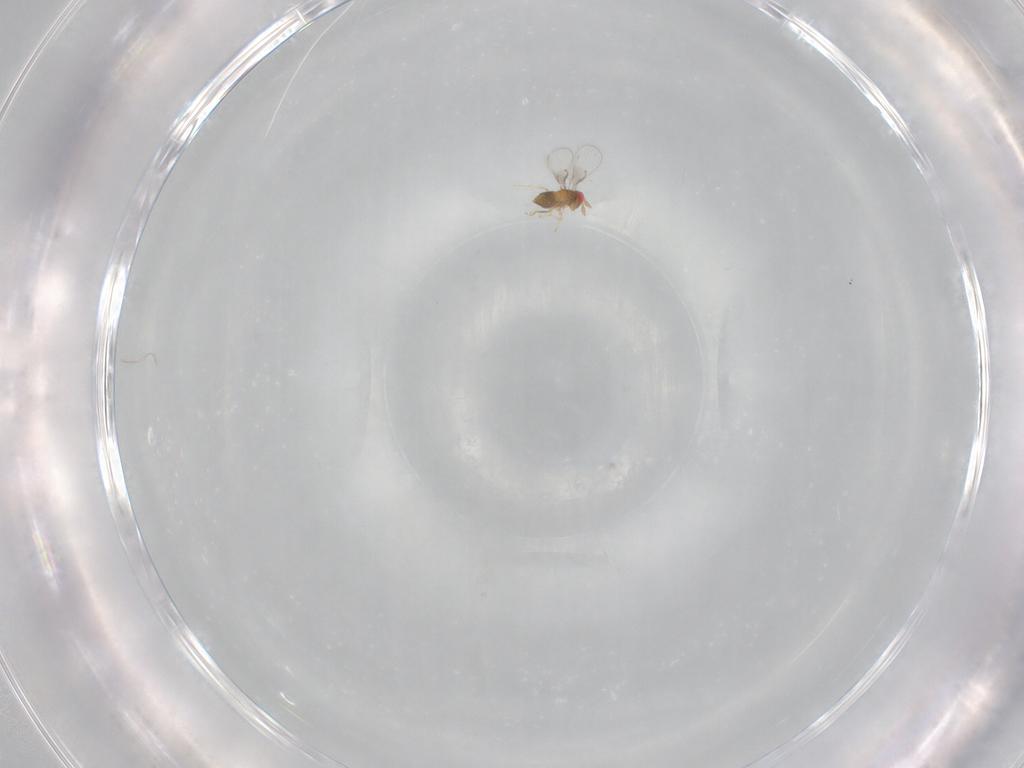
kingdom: Animalia
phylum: Arthropoda
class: Insecta
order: Hymenoptera
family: Trichogrammatidae
